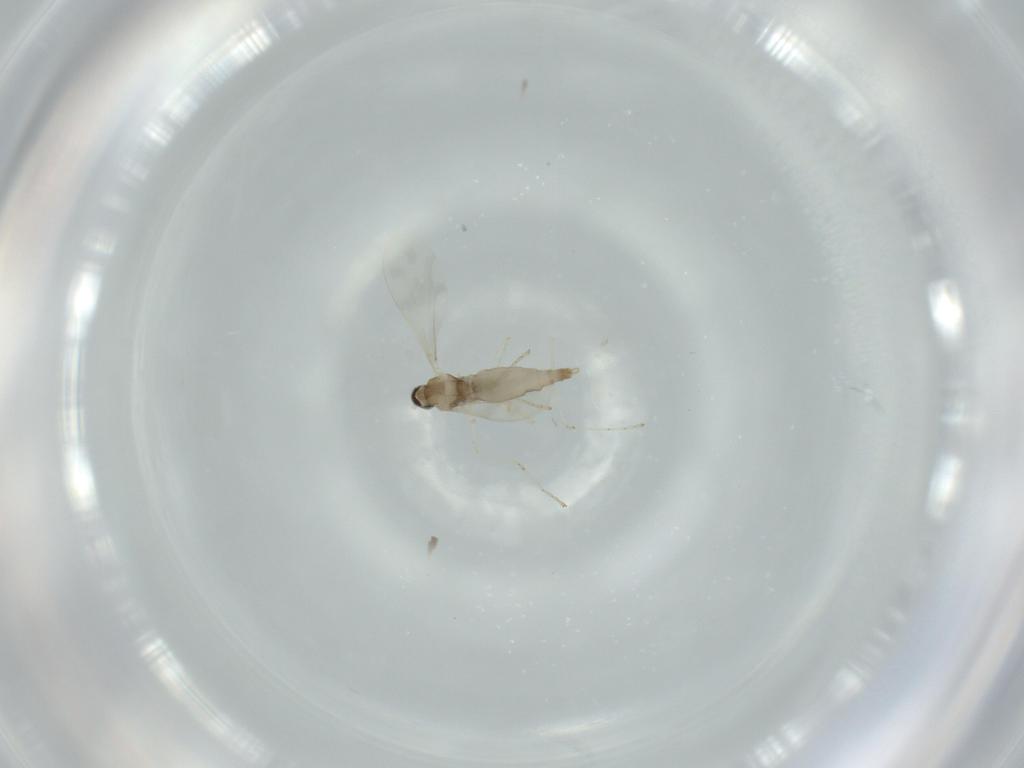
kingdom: Animalia
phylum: Arthropoda
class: Insecta
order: Diptera
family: Cecidomyiidae
